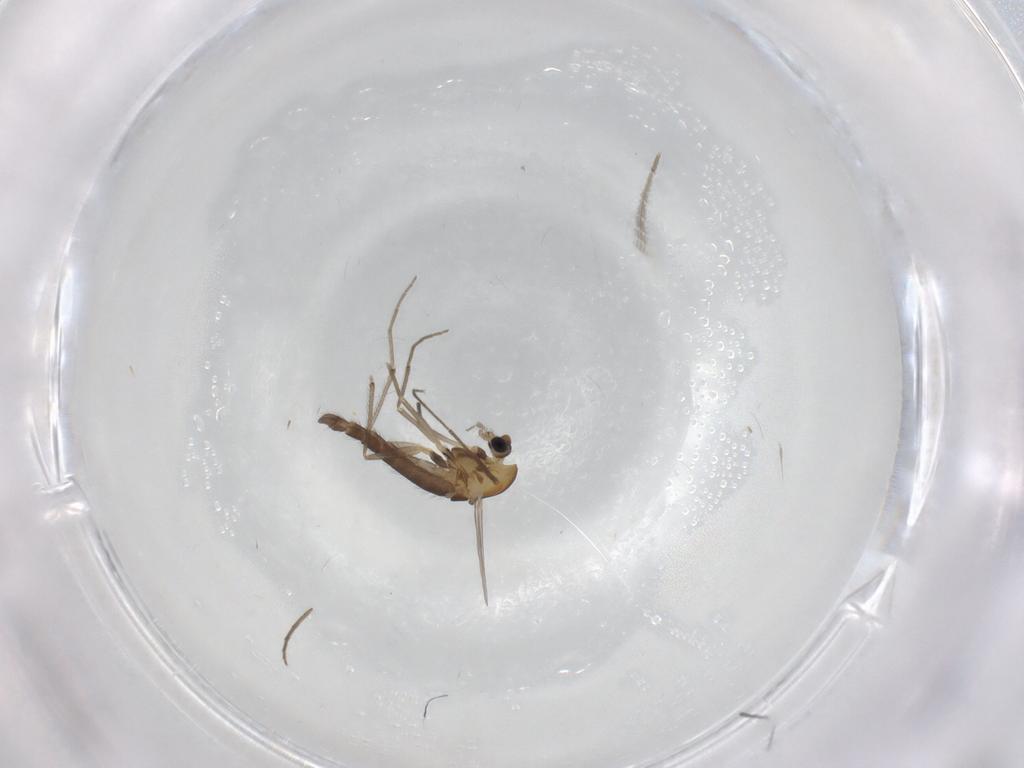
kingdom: Animalia
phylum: Arthropoda
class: Insecta
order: Diptera
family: Chironomidae
